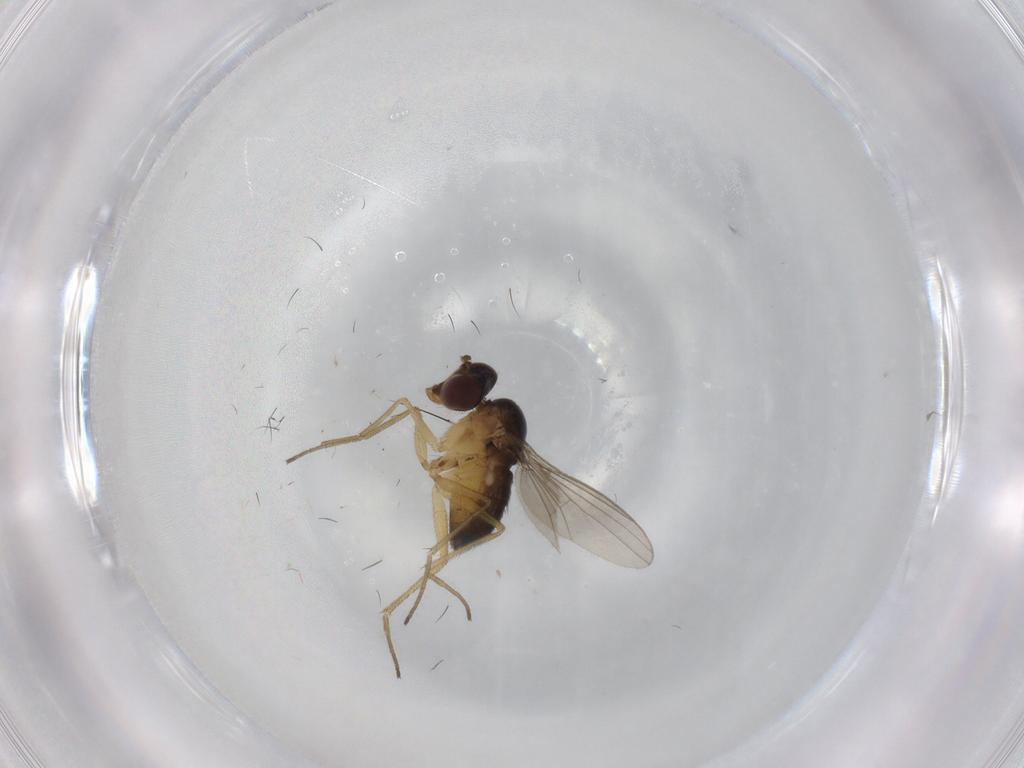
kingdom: Animalia
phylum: Arthropoda
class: Insecta
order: Diptera
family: Dolichopodidae
